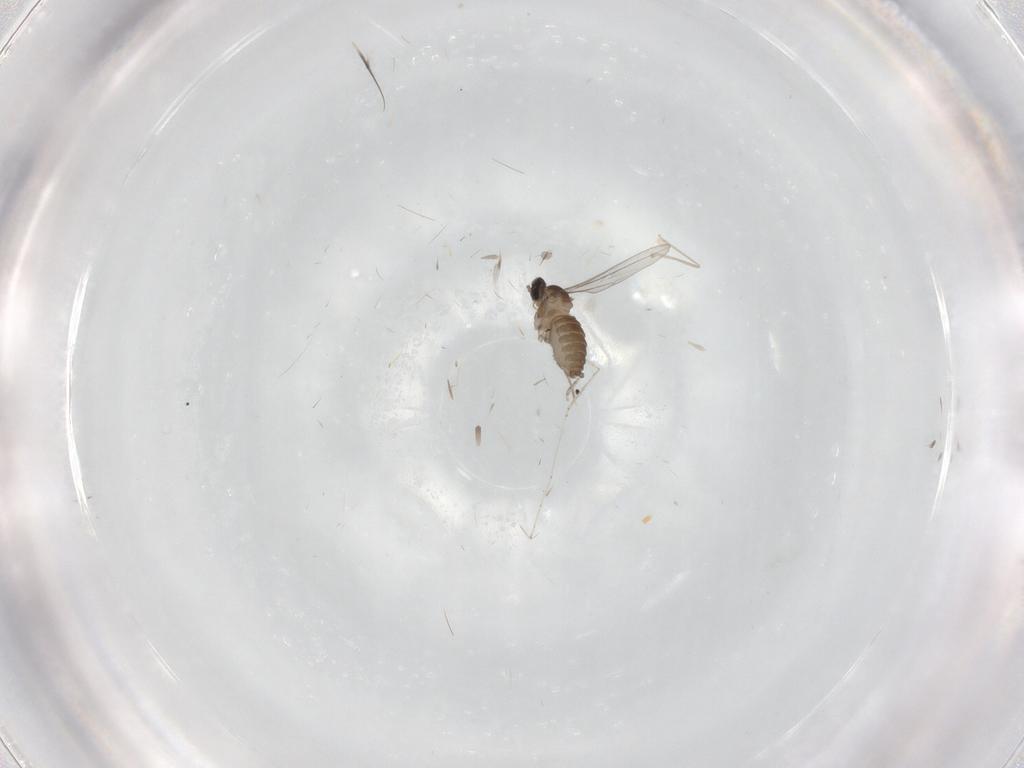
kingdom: Animalia
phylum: Arthropoda
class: Insecta
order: Diptera
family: Cecidomyiidae
